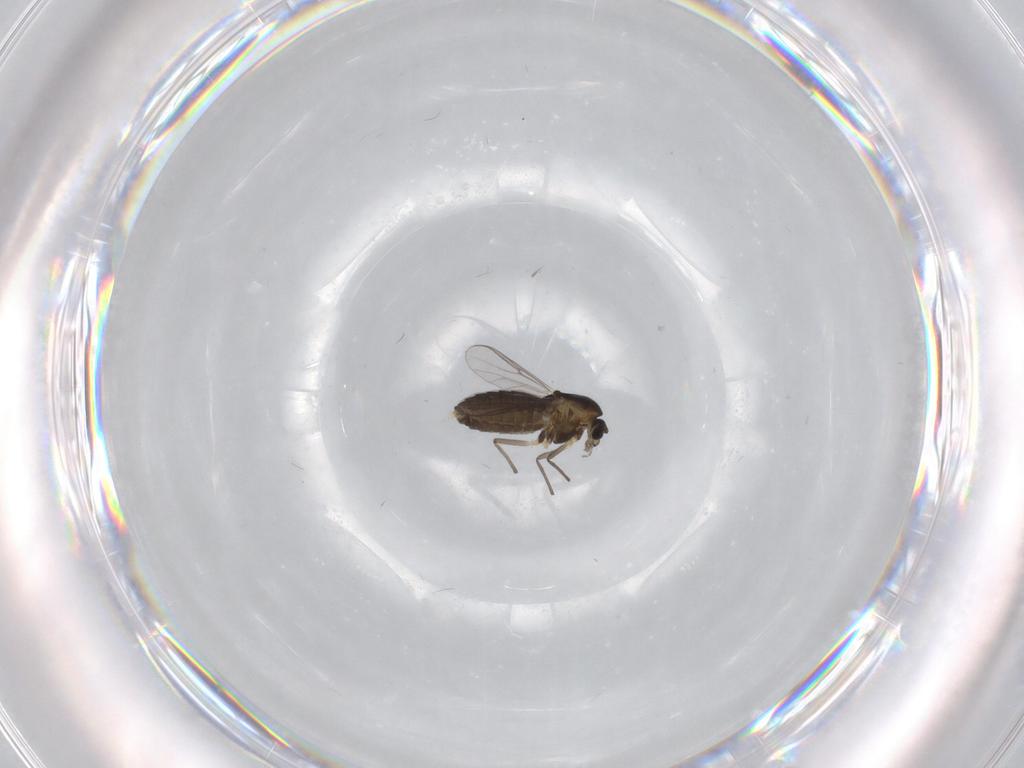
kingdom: Animalia
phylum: Arthropoda
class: Insecta
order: Diptera
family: Chironomidae
